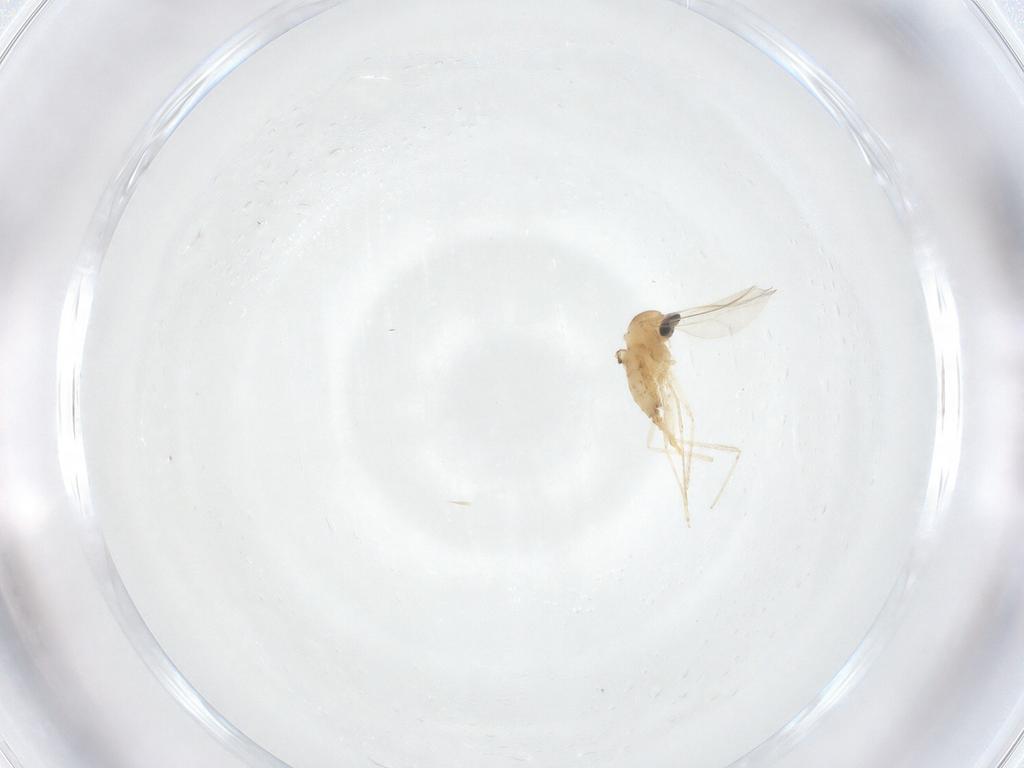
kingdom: Animalia
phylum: Arthropoda
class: Insecta
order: Diptera
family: Cecidomyiidae
